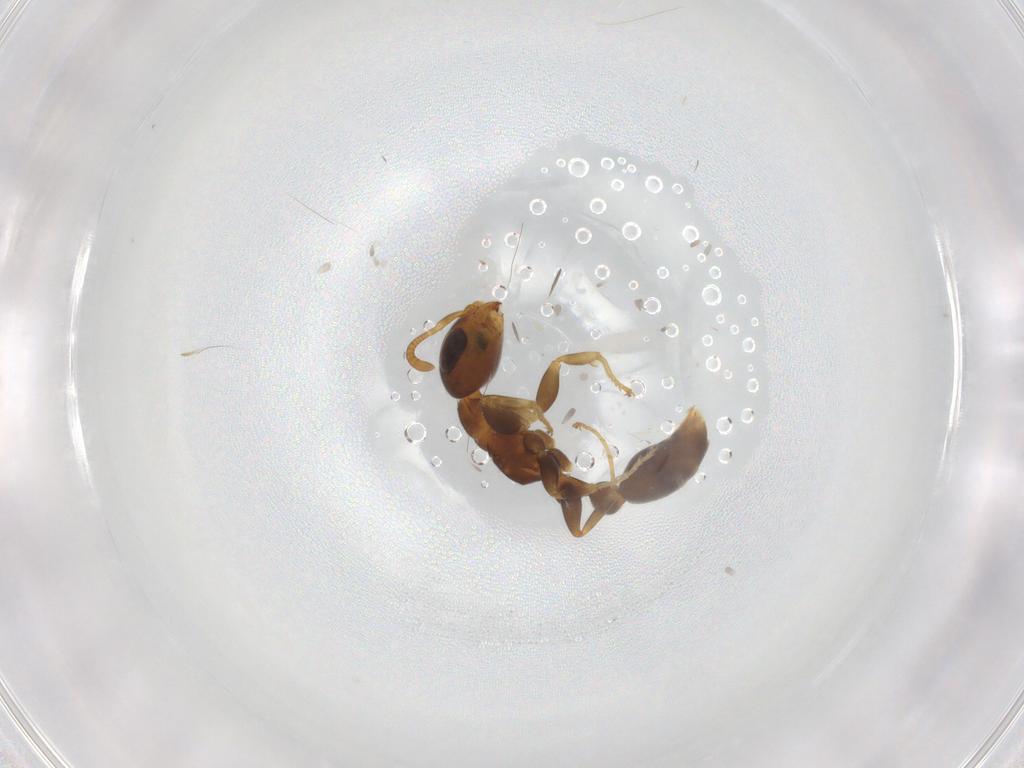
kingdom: Animalia
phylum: Arthropoda
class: Insecta
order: Hymenoptera
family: Formicidae
